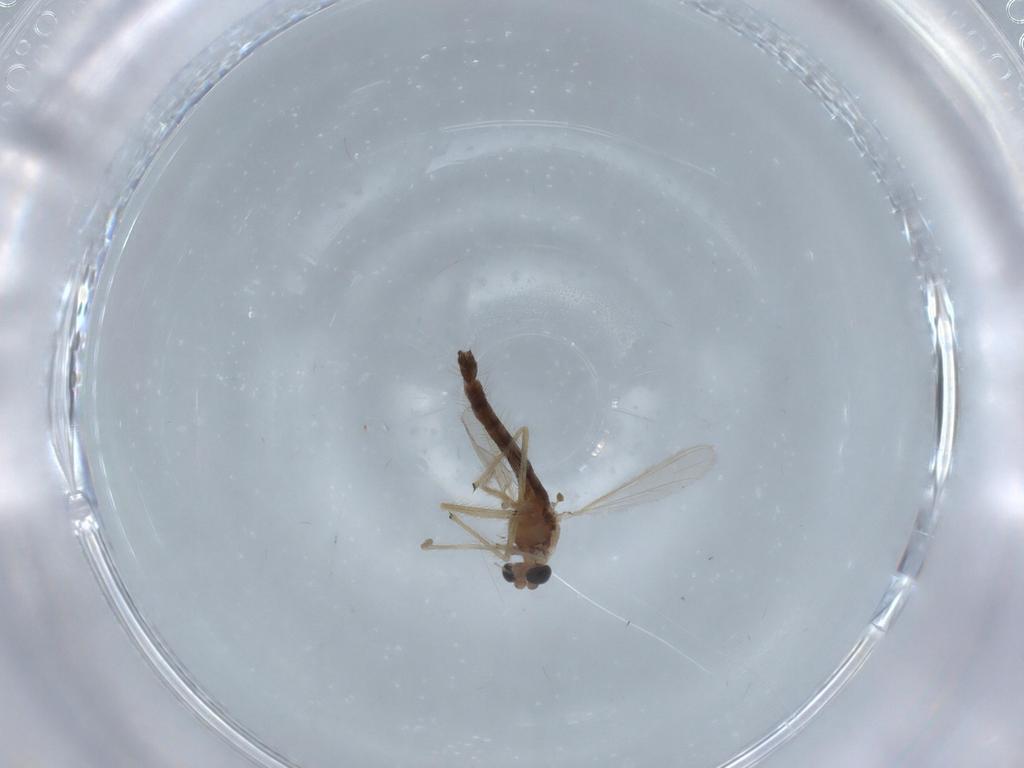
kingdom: Animalia
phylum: Arthropoda
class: Insecta
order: Diptera
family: Chironomidae
